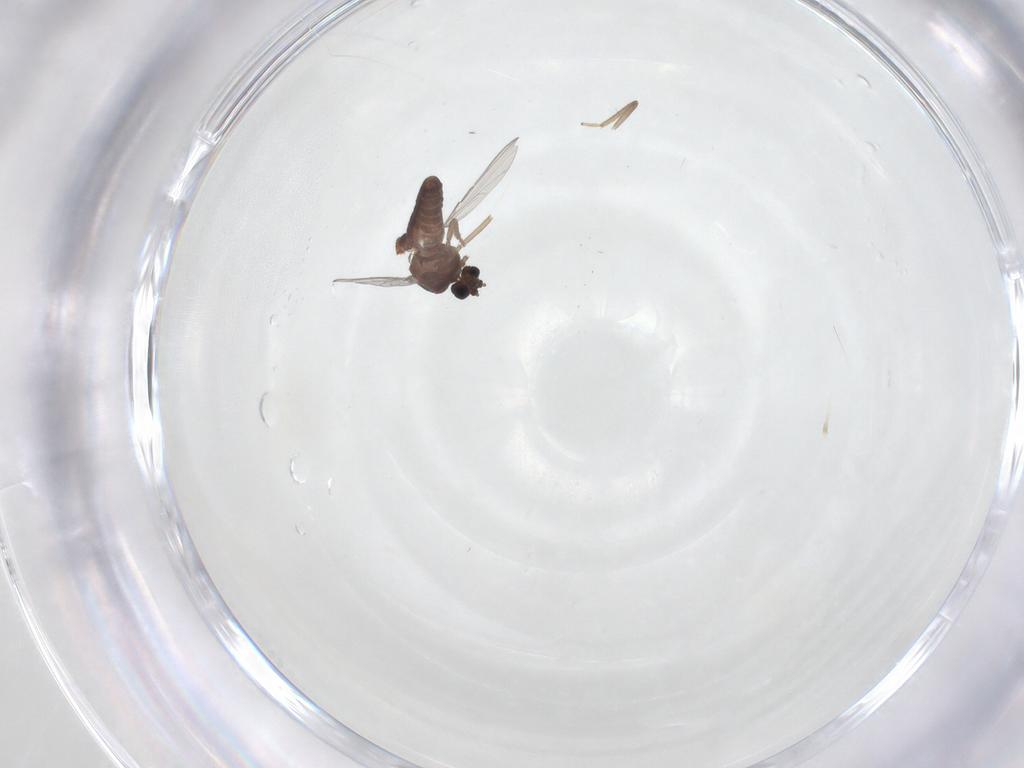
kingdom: Animalia
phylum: Arthropoda
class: Insecta
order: Diptera
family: Ceratopogonidae
